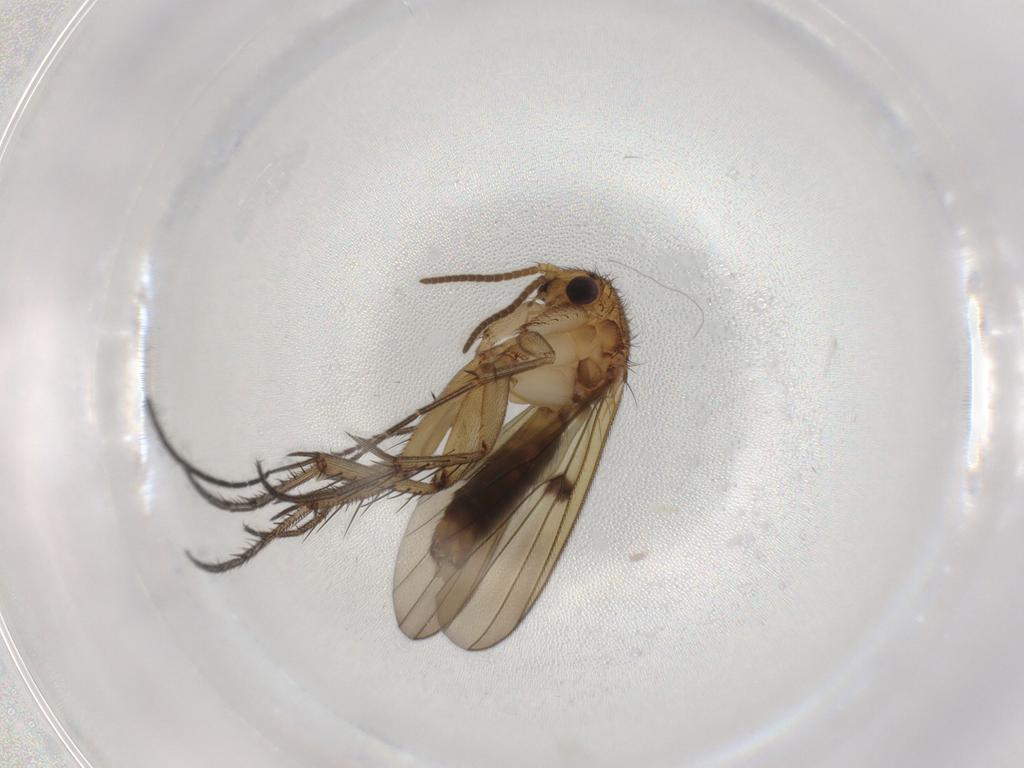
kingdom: Animalia
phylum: Arthropoda
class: Insecta
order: Diptera
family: Mycetophilidae
